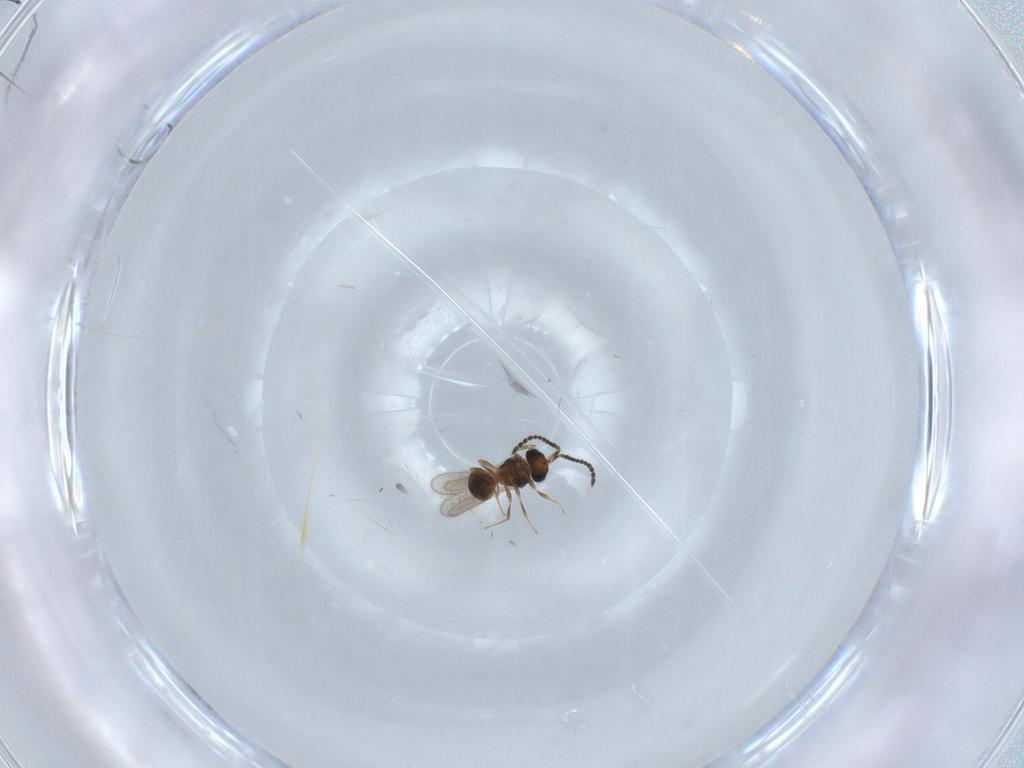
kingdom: Animalia
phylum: Arthropoda
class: Insecta
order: Hymenoptera
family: Scelionidae
